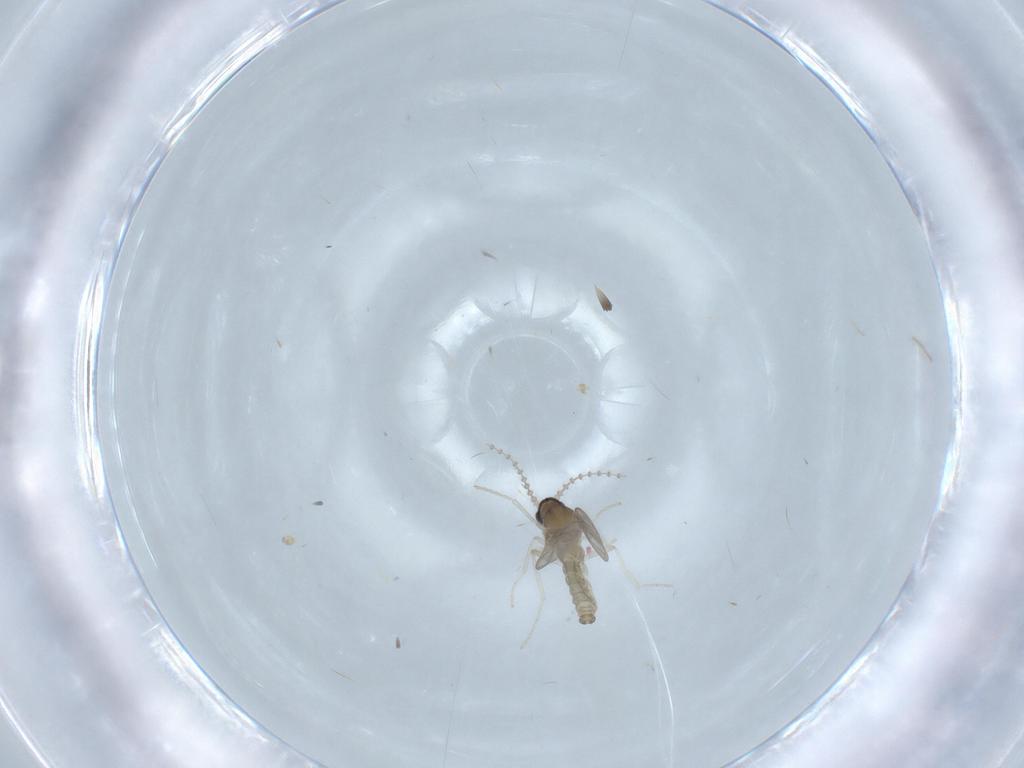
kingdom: Animalia
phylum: Arthropoda
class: Insecta
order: Diptera
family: Cecidomyiidae
